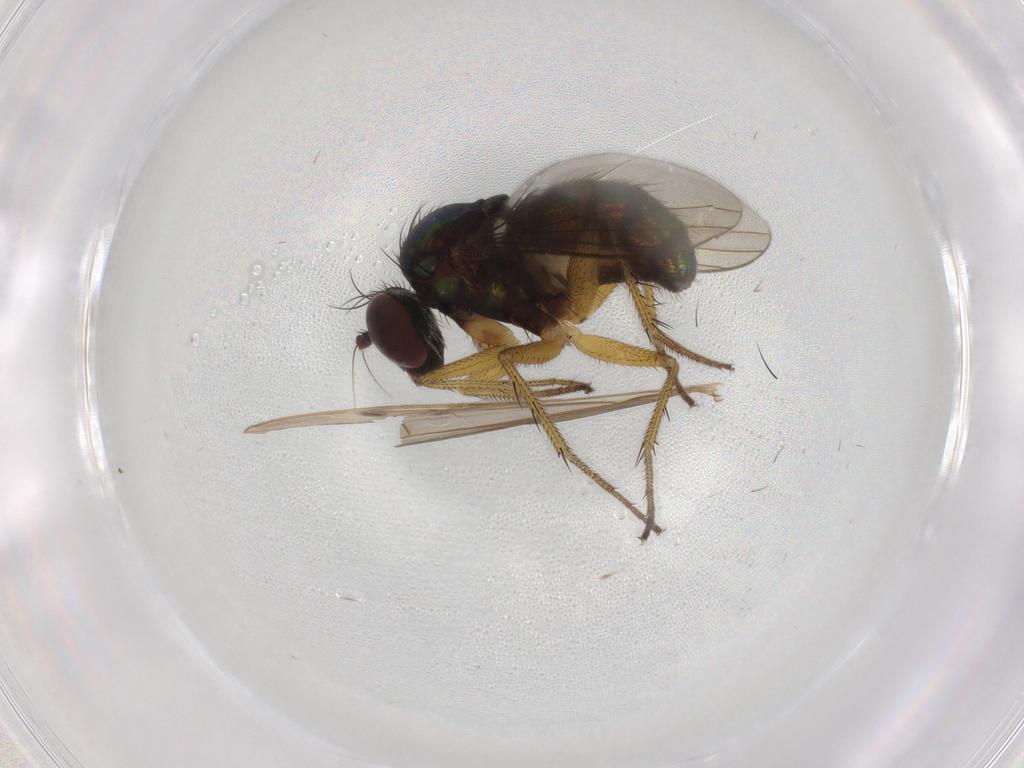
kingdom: Animalia
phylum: Arthropoda
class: Insecta
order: Diptera
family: Dolichopodidae
